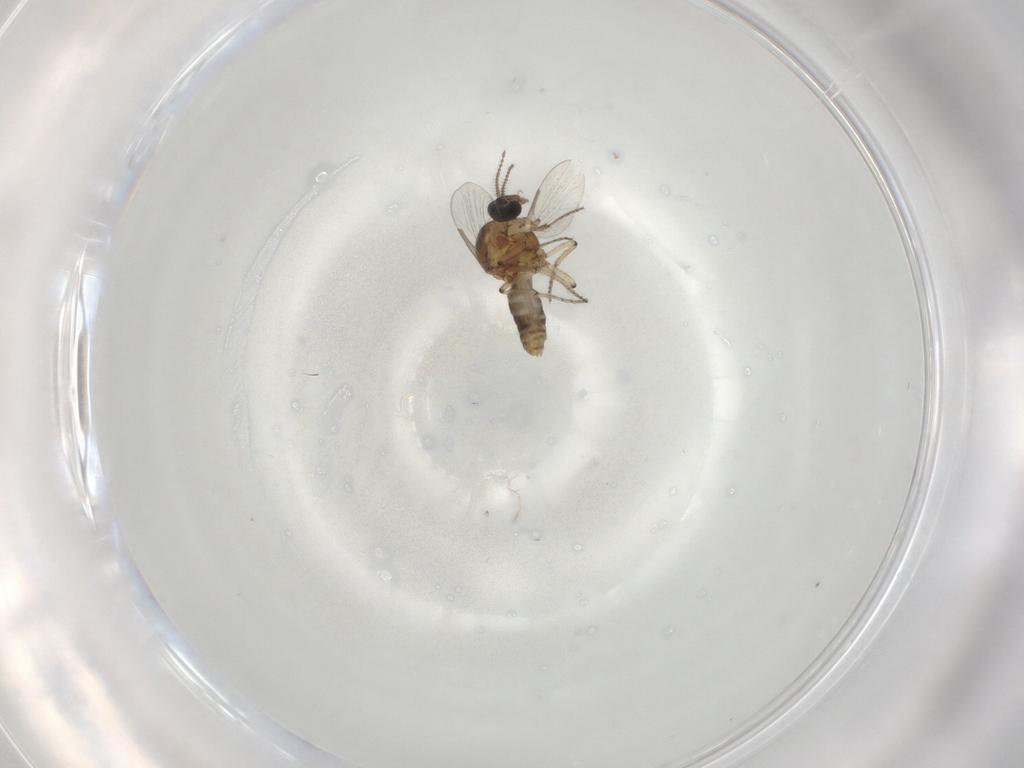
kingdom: Animalia
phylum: Arthropoda
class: Insecta
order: Diptera
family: Ceratopogonidae
